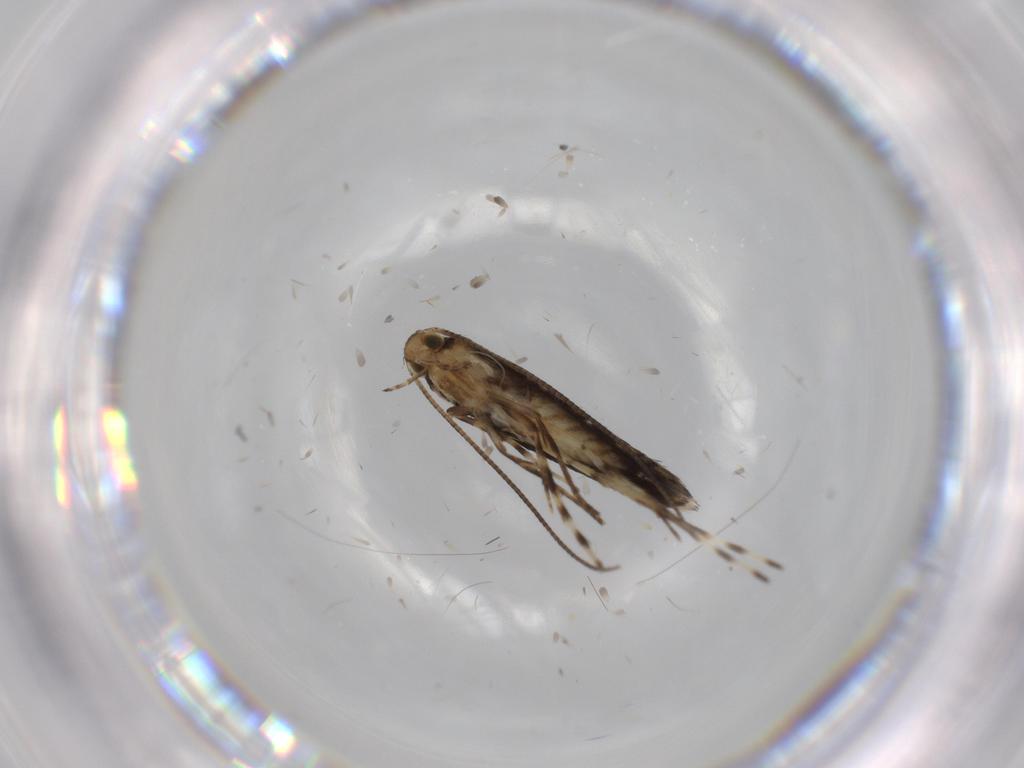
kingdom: Animalia
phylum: Arthropoda
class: Insecta
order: Lepidoptera
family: Gracillariidae
